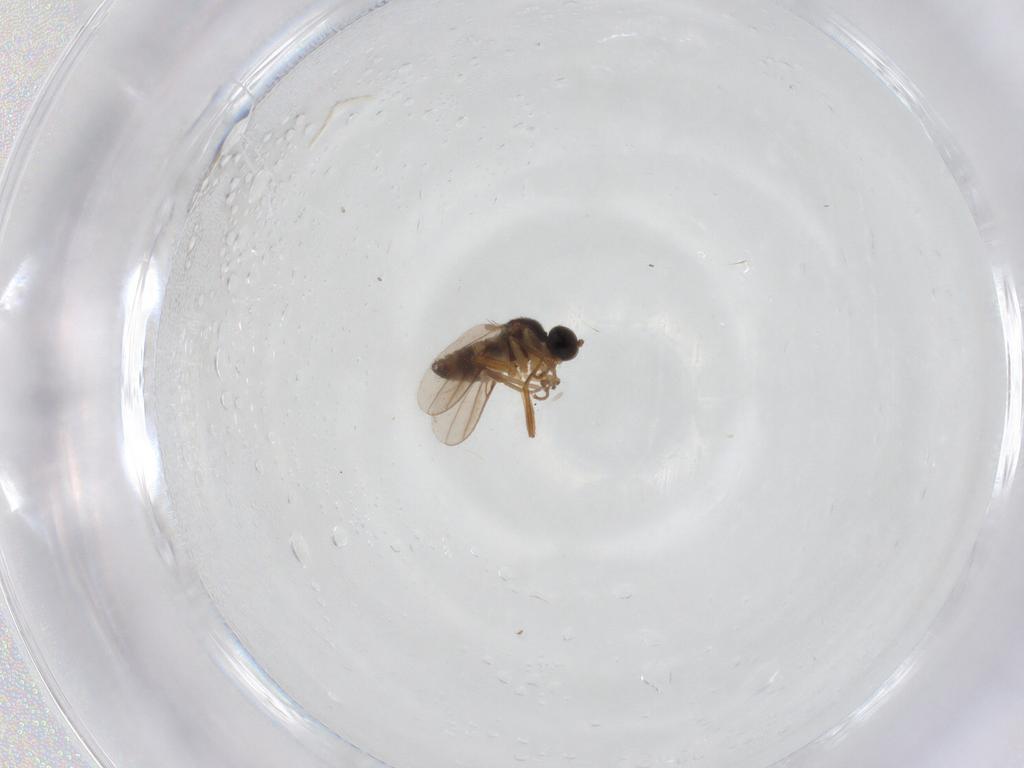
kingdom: Animalia
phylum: Arthropoda
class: Insecta
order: Diptera
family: Hybotidae
